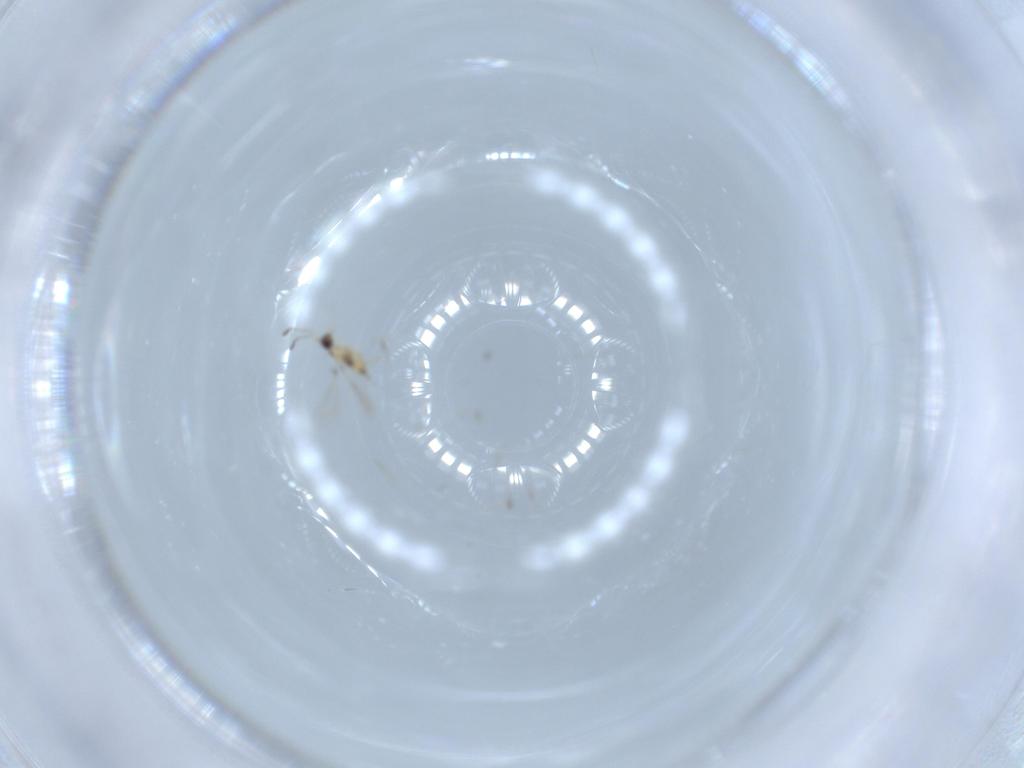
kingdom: Animalia
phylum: Arthropoda
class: Insecta
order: Hymenoptera
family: Mymaridae
